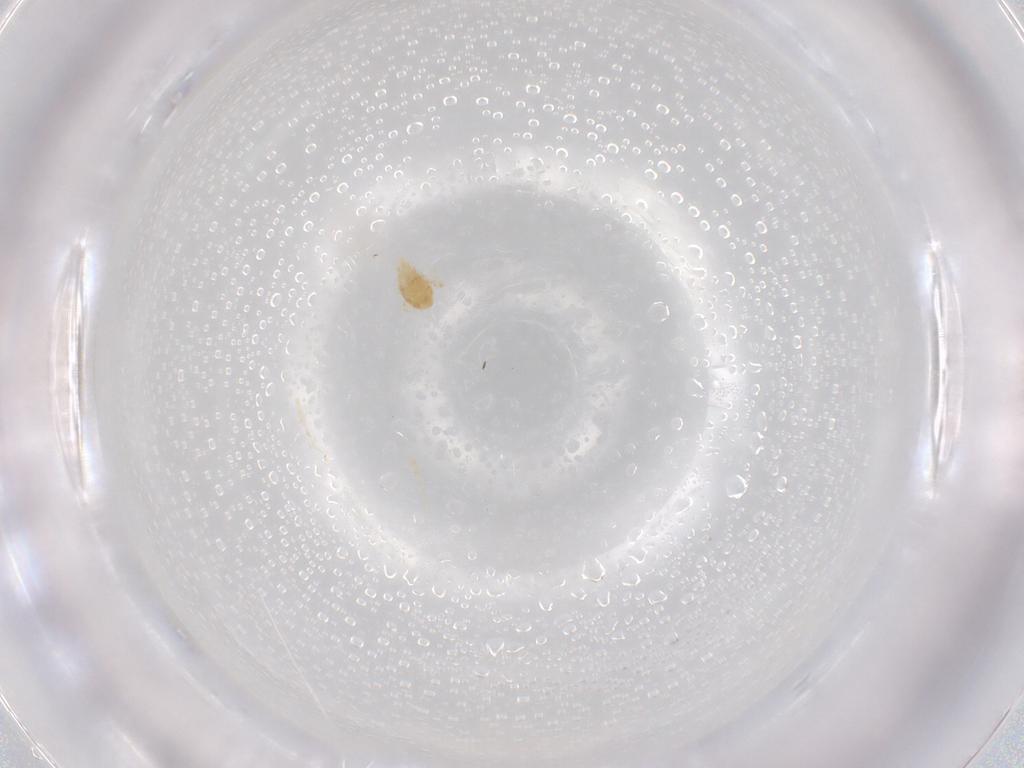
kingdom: Animalia
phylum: Arthropoda
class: Arachnida
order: Trombidiformes
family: Eupodidae
